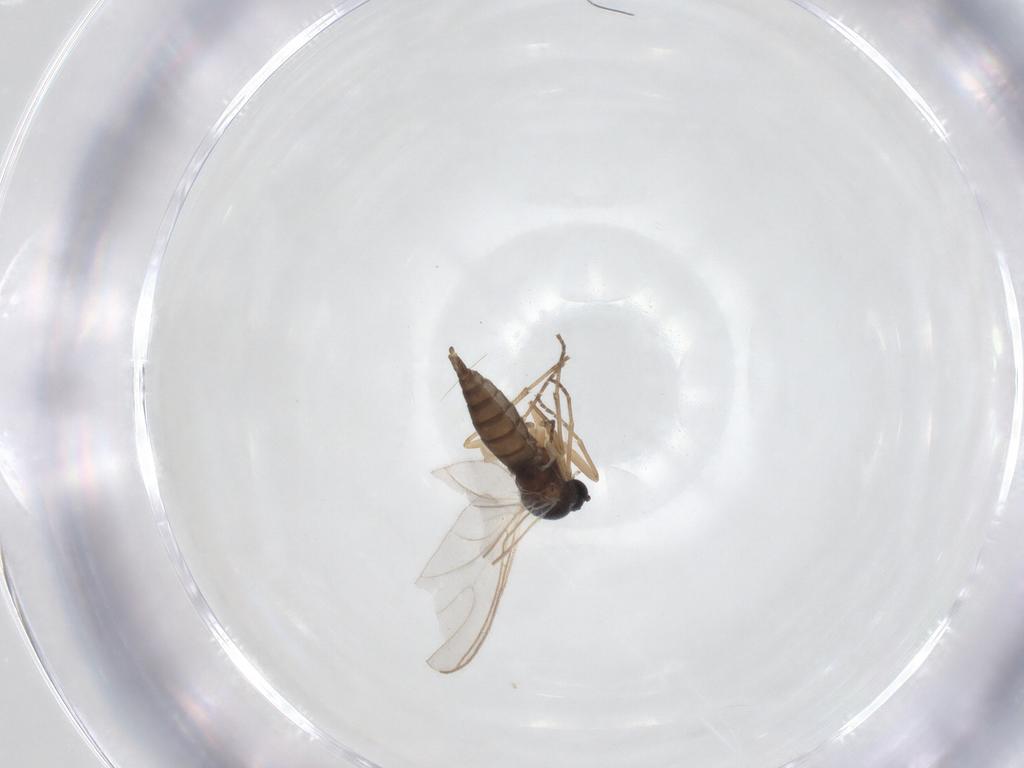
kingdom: Animalia
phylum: Arthropoda
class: Insecta
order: Diptera
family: Sciaridae
